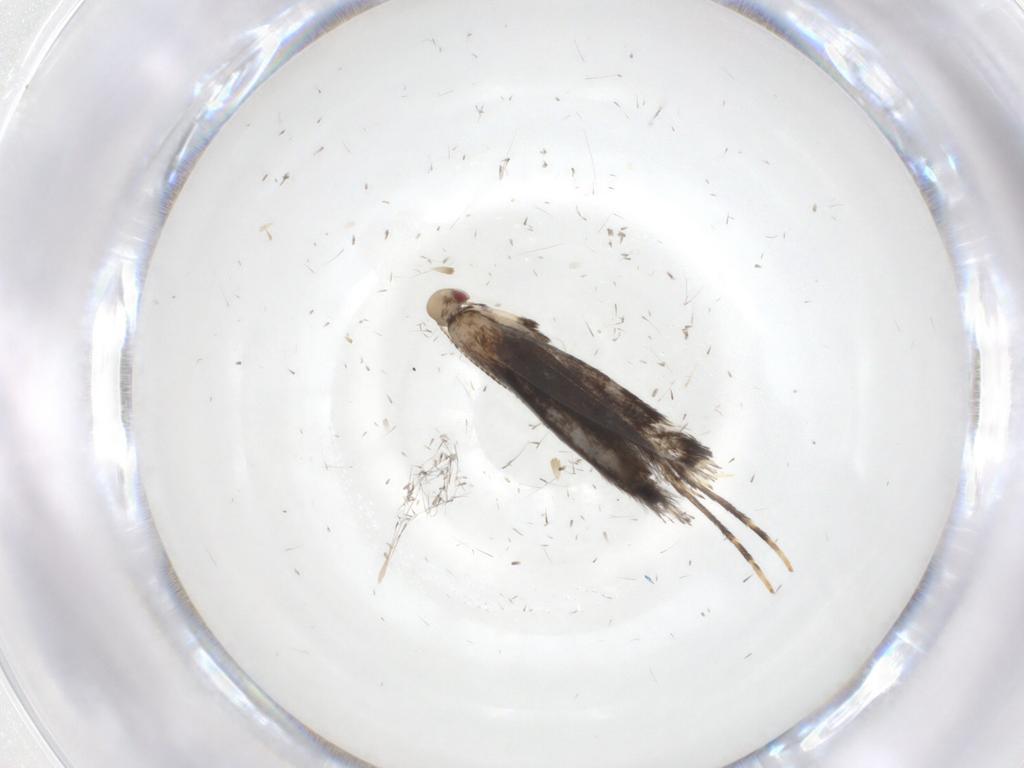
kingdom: Animalia
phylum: Arthropoda
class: Insecta
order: Lepidoptera
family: Gracillariidae
